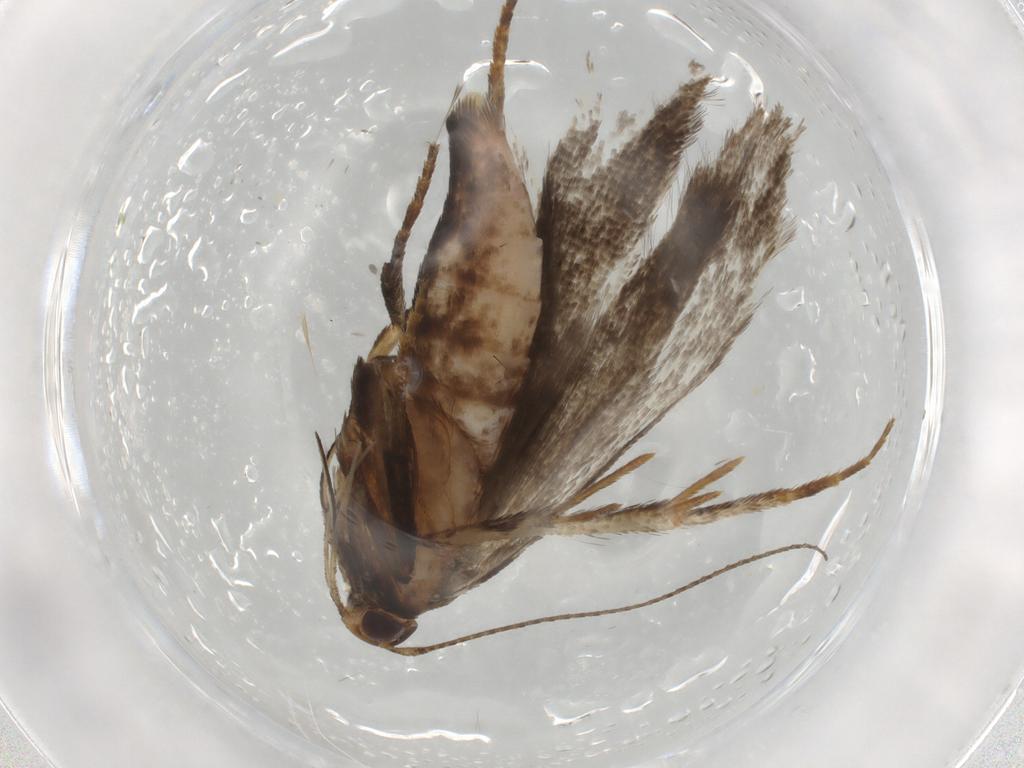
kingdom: Animalia
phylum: Arthropoda
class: Insecta
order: Lepidoptera
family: Gelechiidae
